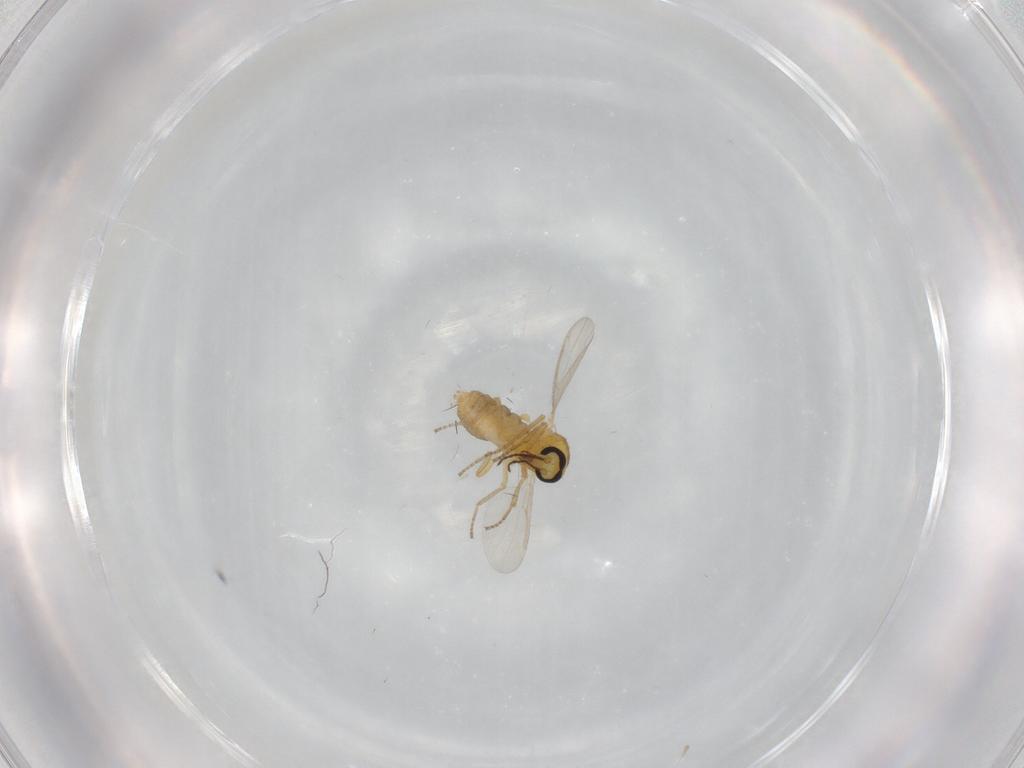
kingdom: Animalia
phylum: Arthropoda
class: Insecta
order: Diptera
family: Ceratopogonidae
